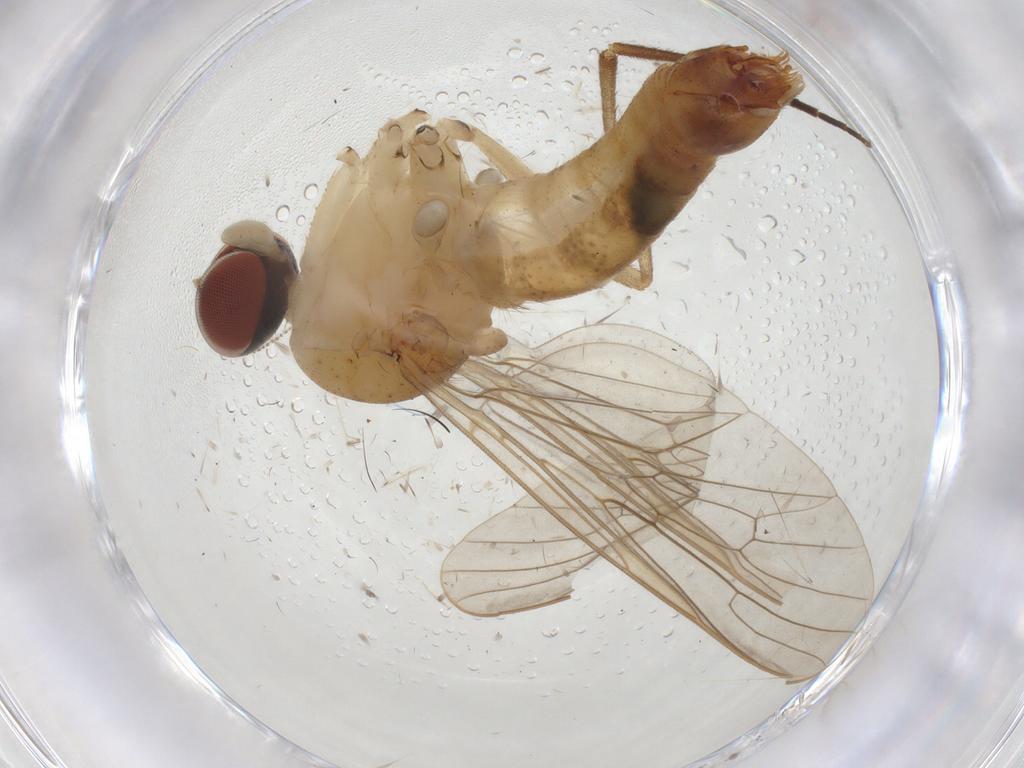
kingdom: Animalia
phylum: Arthropoda
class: Insecta
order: Diptera
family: Apsilocephalidae
